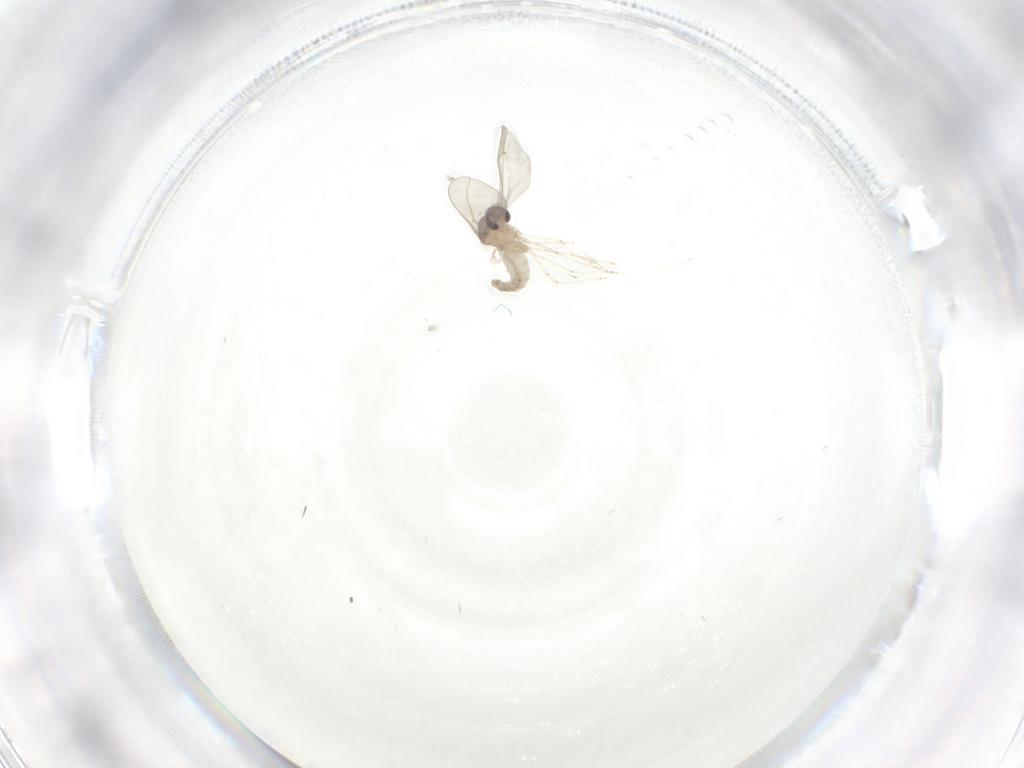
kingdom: Animalia
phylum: Arthropoda
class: Insecta
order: Diptera
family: Cecidomyiidae
